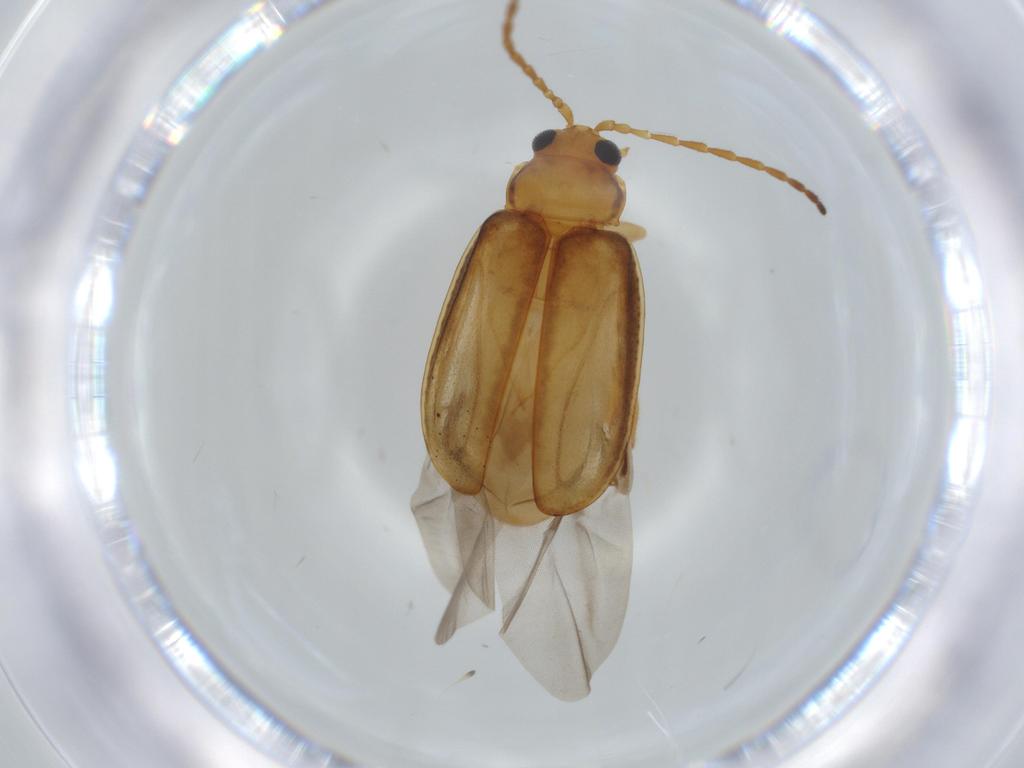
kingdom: Animalia
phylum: Arthropoda
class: Insecta
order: Coleoptera
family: Chrysomelidae
